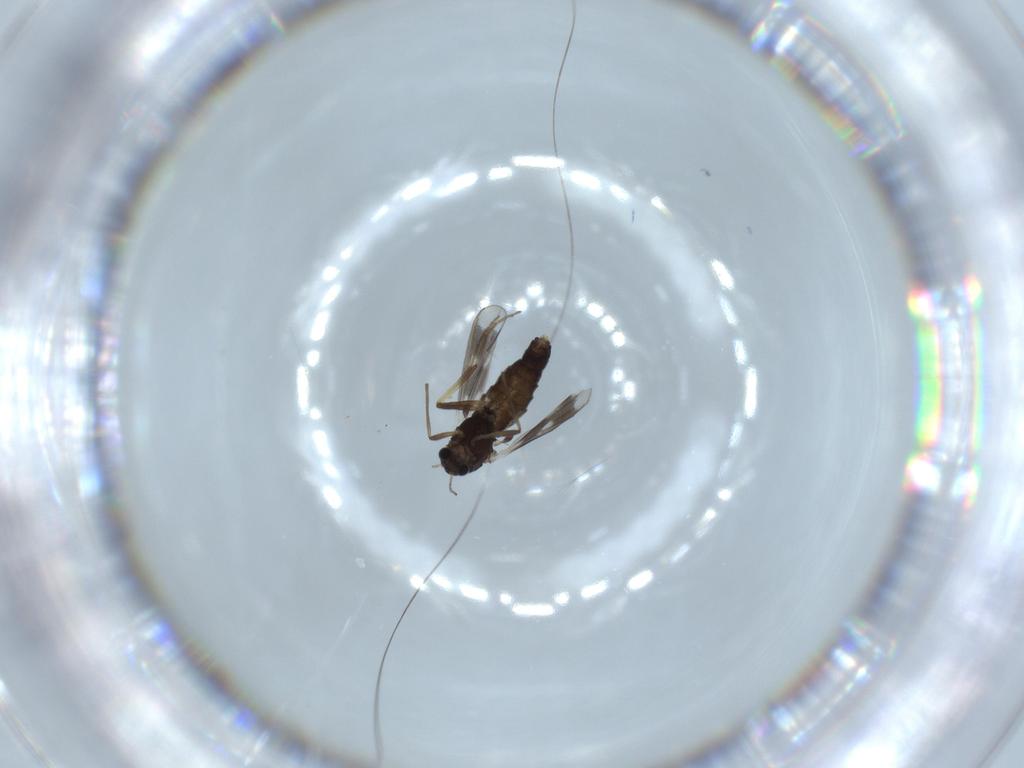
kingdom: Animalia
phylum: Arthropoda
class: Insecta
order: Diptera
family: Chironomidae
